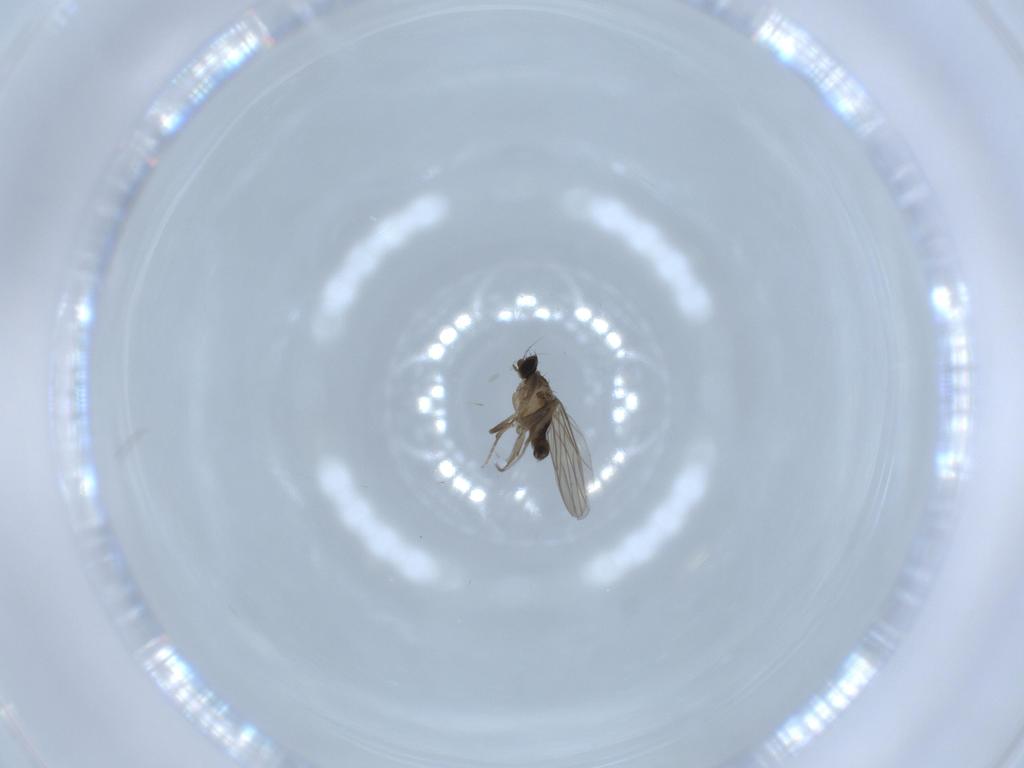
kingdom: Animalia
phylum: Arthropoda
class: Insecta
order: Diptera
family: Phoridae
